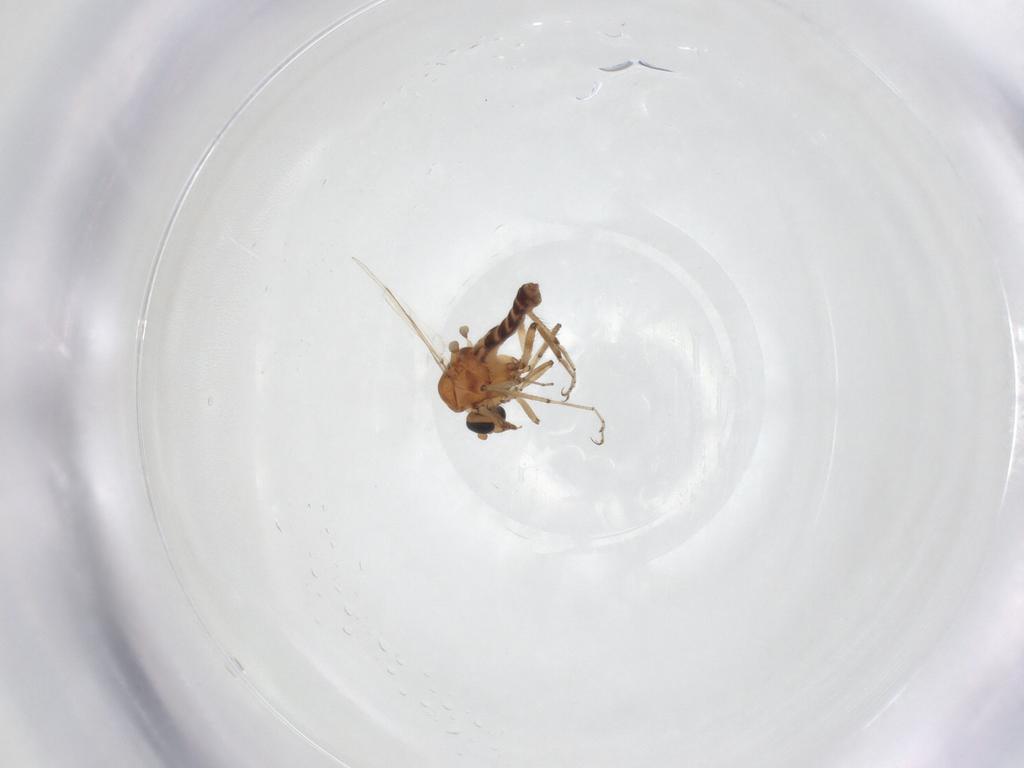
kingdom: Animalia
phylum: Arthropoda
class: Insecta
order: Diptera
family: Ceratopogonidae
